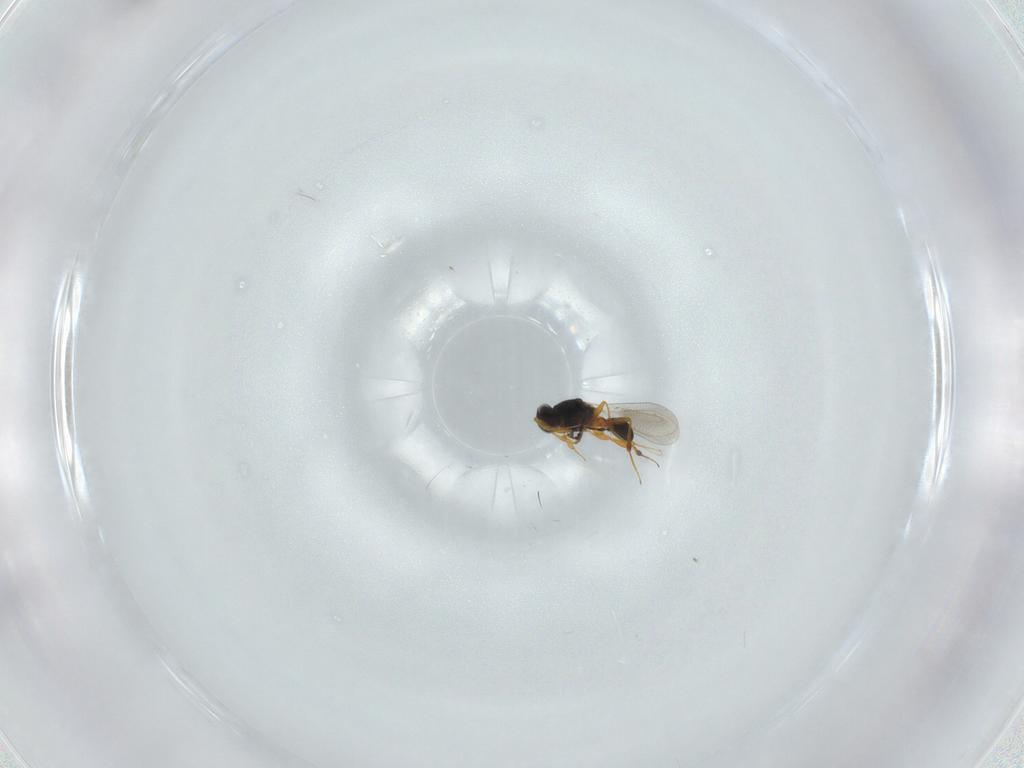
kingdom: Animalia
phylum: Arthropoda
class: Insecta
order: Hymenoptera
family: Platygastridae
